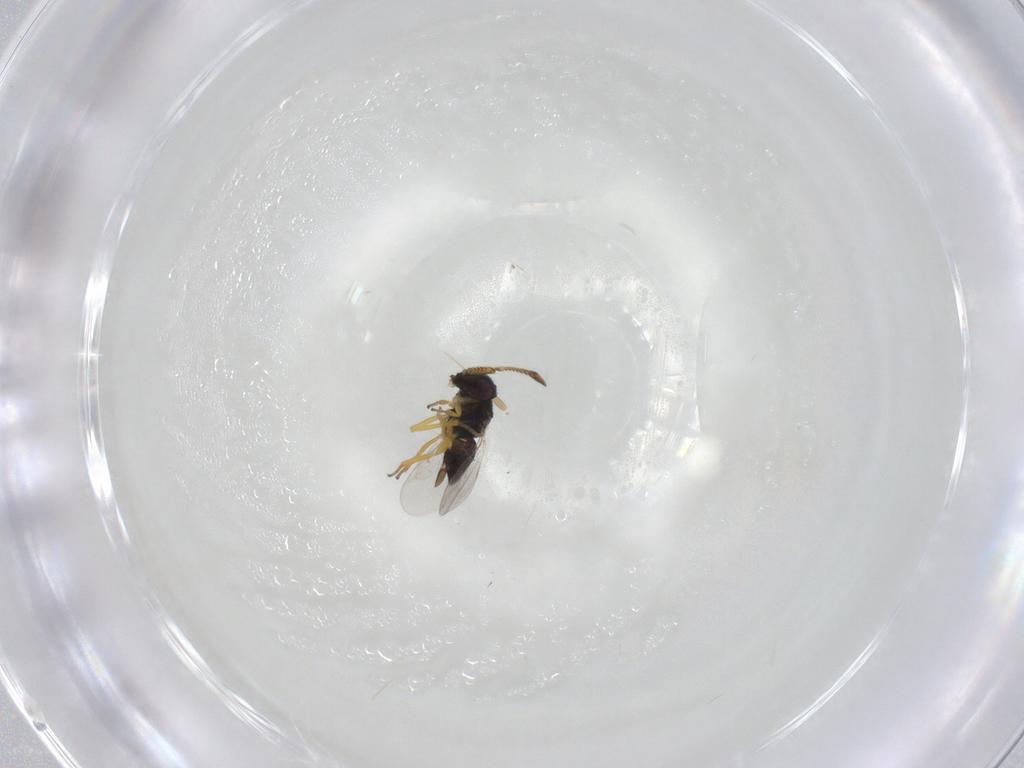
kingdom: Animalia
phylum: Arthropoda
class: Insecta
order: Hymenoptera
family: Encyrtidae
